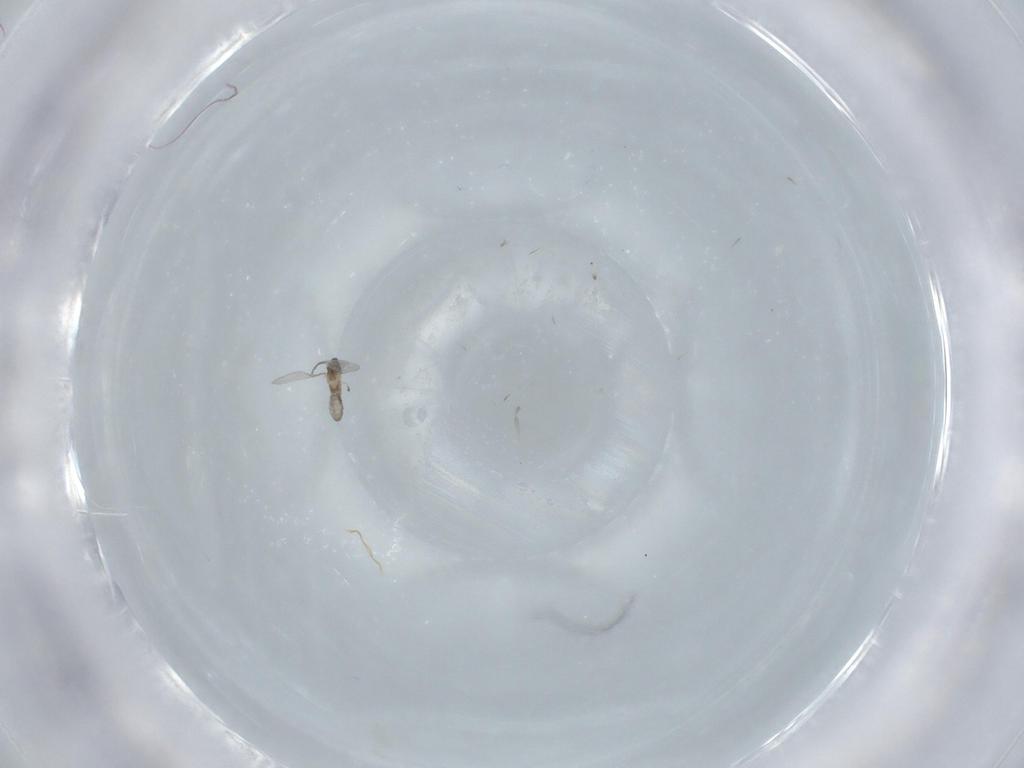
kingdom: Animalia
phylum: Arthropoda
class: Insecta
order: Diptera
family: Cecidomyiidae
